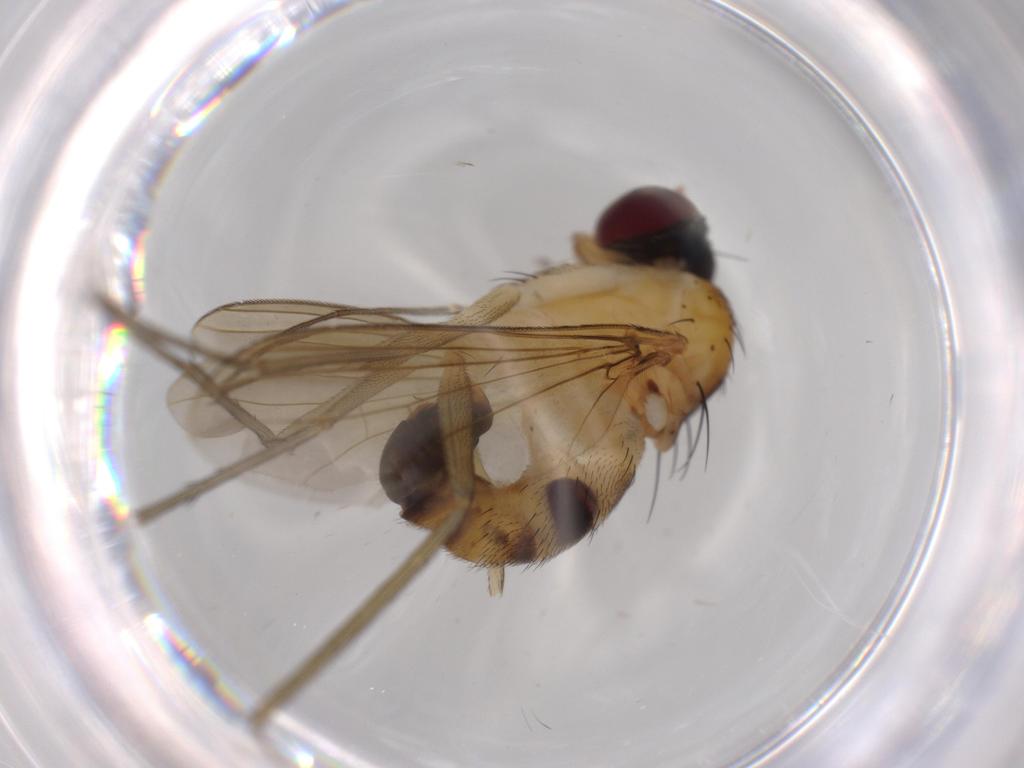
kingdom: Animalia
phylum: Arthropoda
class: Insecta
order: Diptera
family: Dolichopodidae
